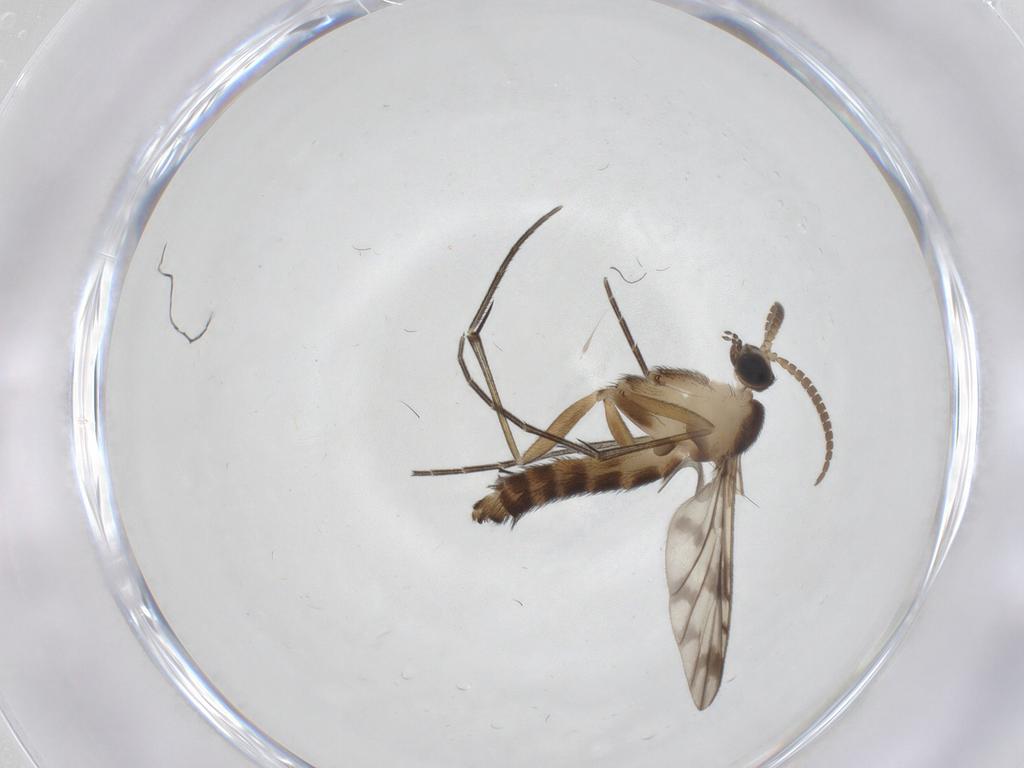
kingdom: Animalia
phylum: Arthropoda
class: Insecta
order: Diptera
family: Keroplatidae
